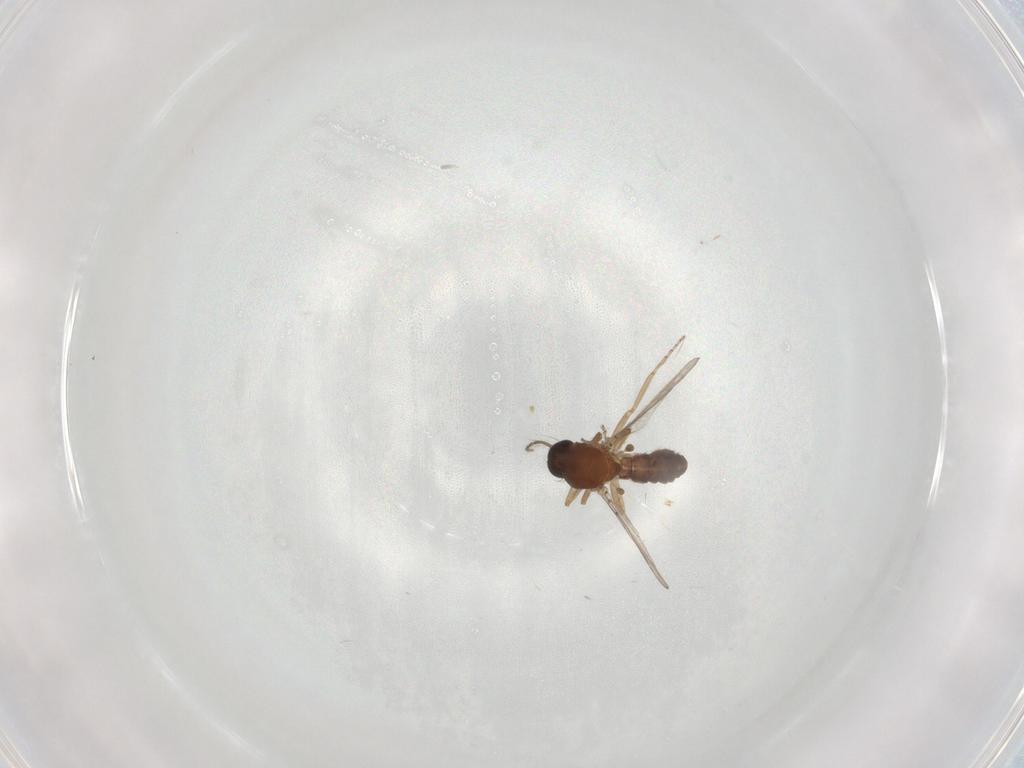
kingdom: Animalia
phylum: Arthropoda
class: Insecta
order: Diptera
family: Ceratopogonidae
